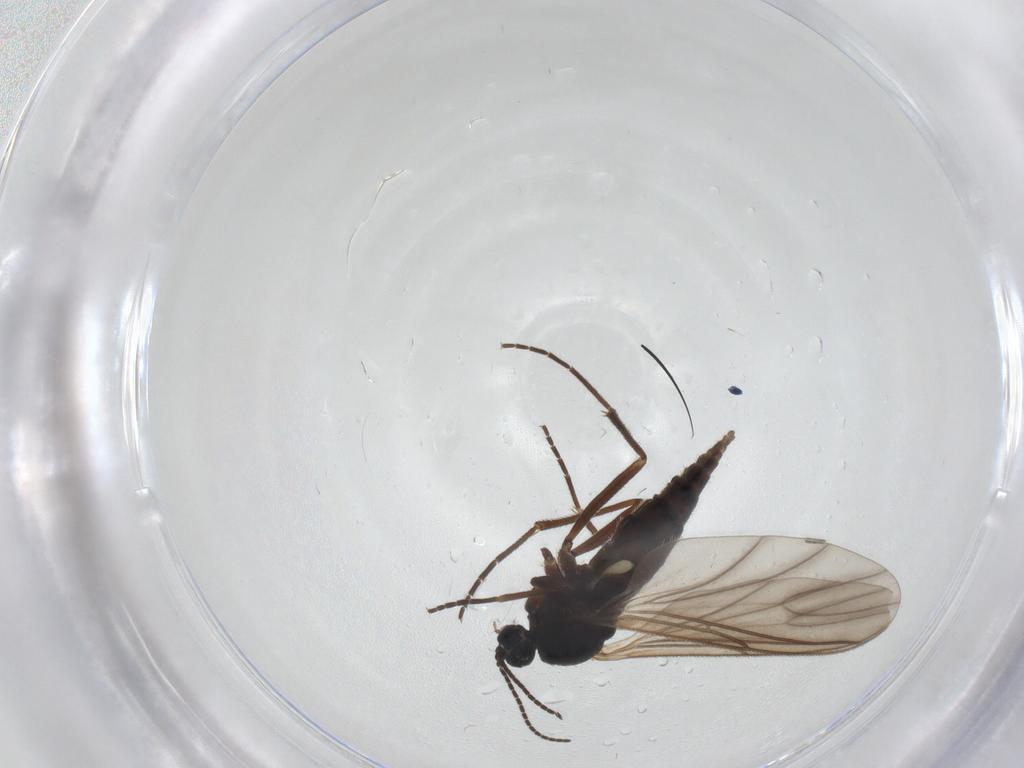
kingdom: Animalia
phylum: Arthropoda
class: Insecta
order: Diptera
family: Sciaridae
